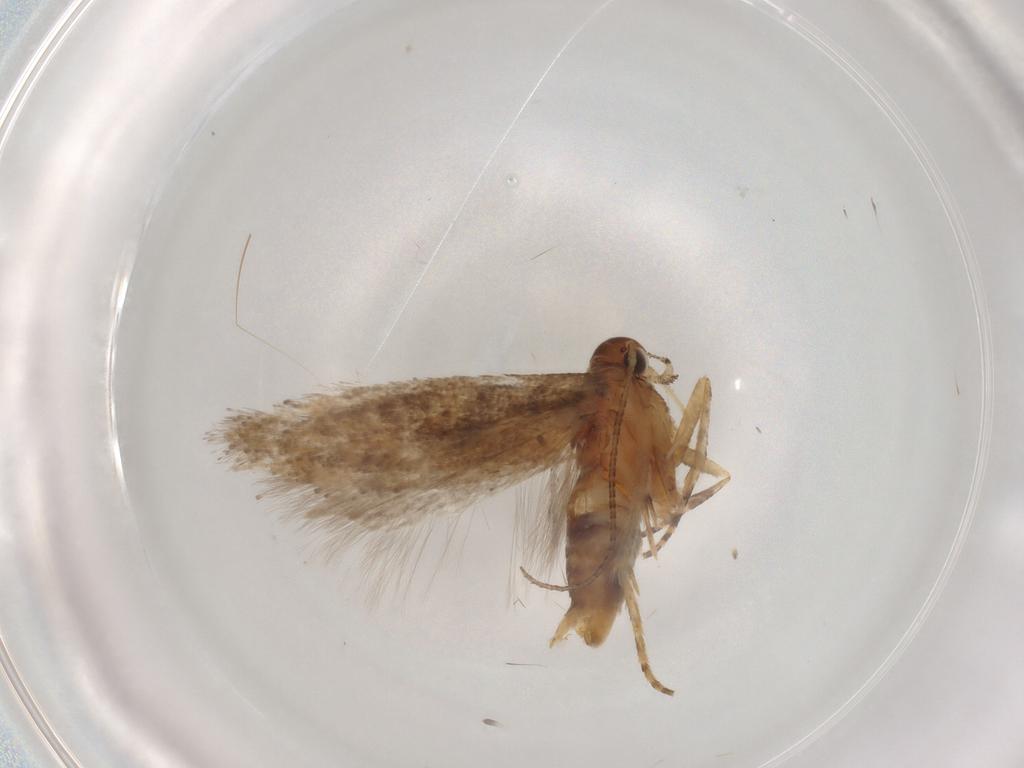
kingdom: Animalia
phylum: Arthropoda
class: Insecta
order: Lepidoptera
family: Gelechiidae
